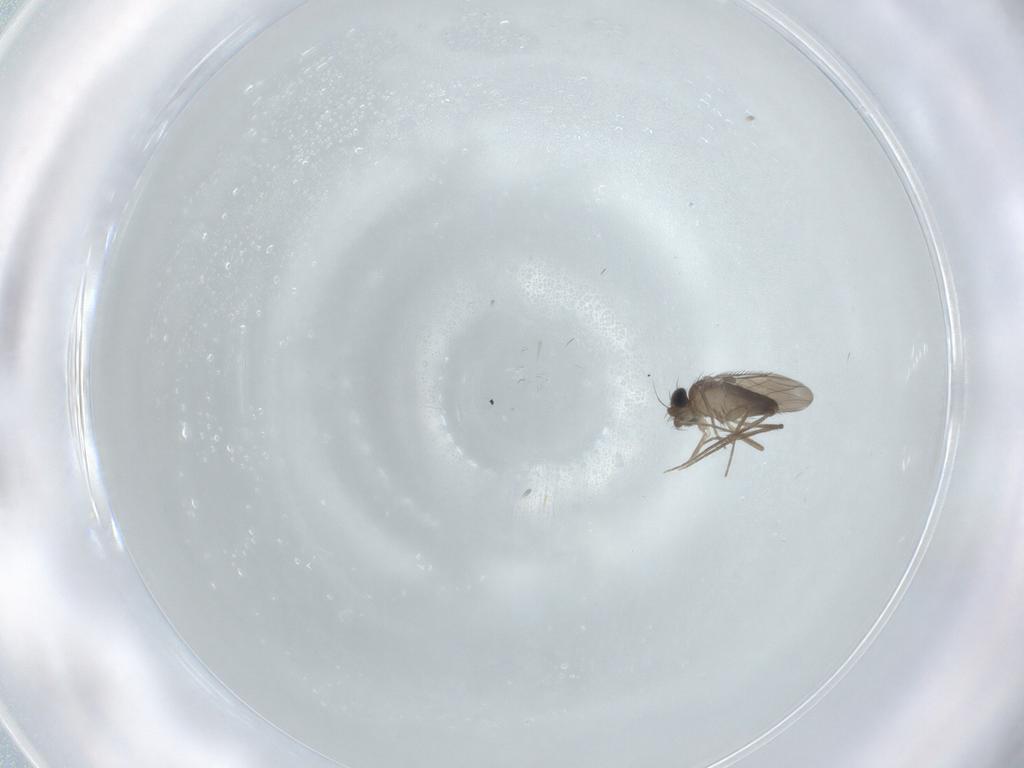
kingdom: Animalia
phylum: Arthropoda
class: Insecta
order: Diptera
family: Phoridae
